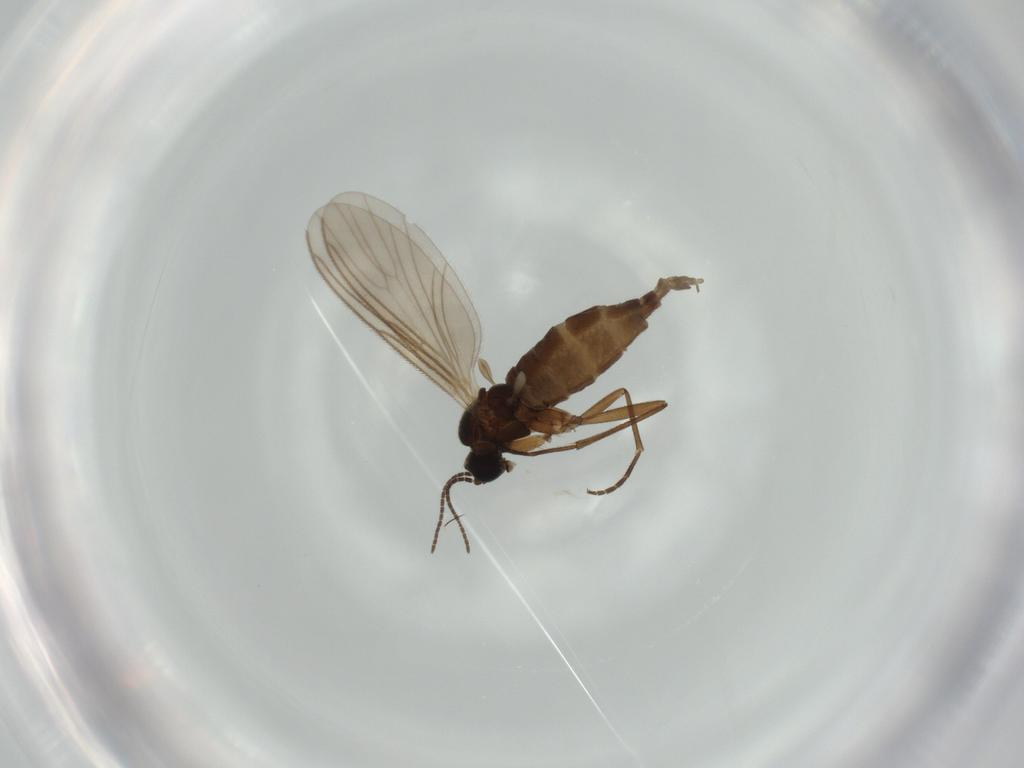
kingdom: Animalia
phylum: Arthropoda
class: Insecta
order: Diptera
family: Sciaridae
